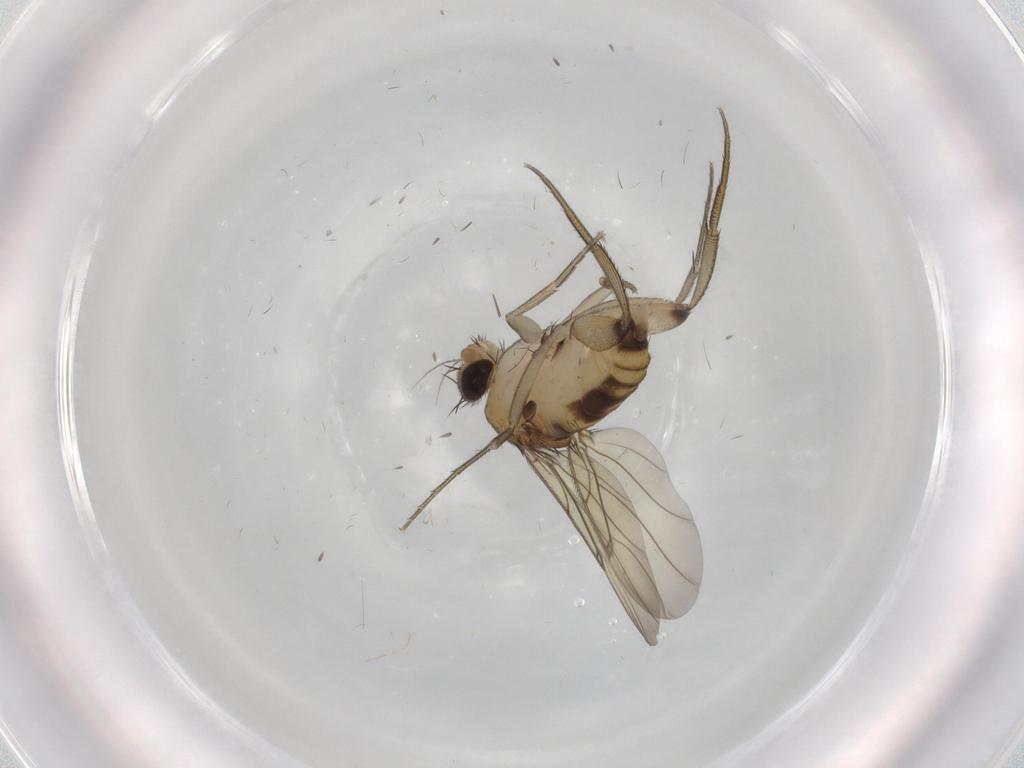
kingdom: Animalia
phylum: Arthropoda
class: Insecta
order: Diptera
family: Phoridae
